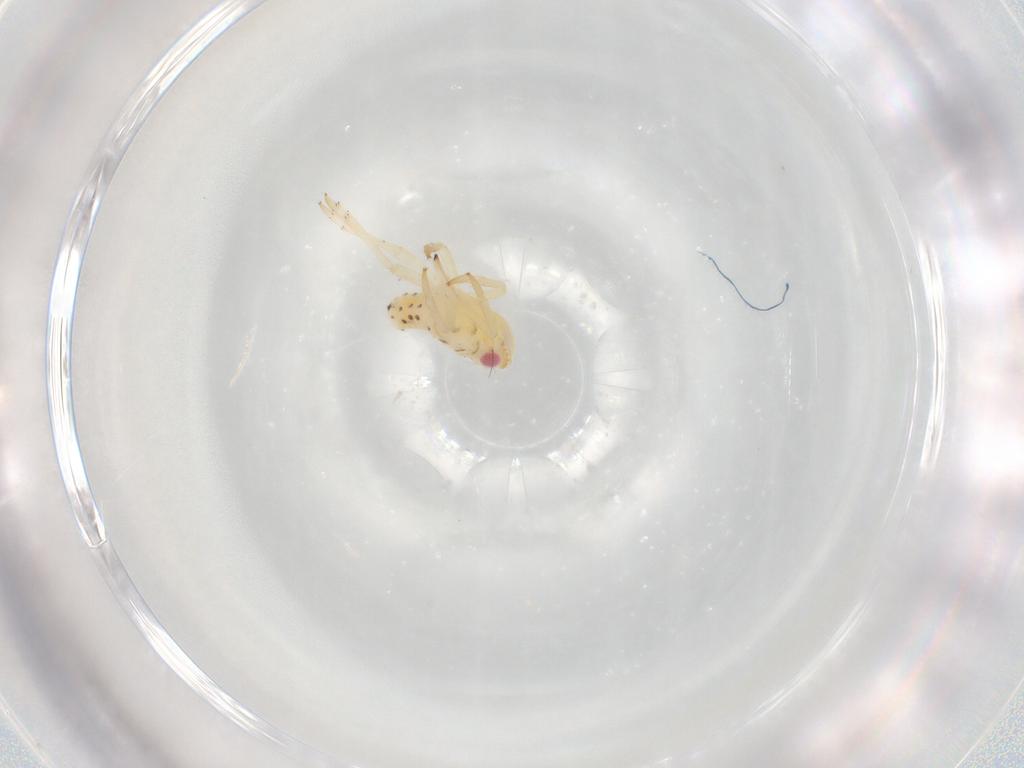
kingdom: Animalia
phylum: Arthropoda
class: Insecta
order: Hemiptera
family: Tropiduchidae
